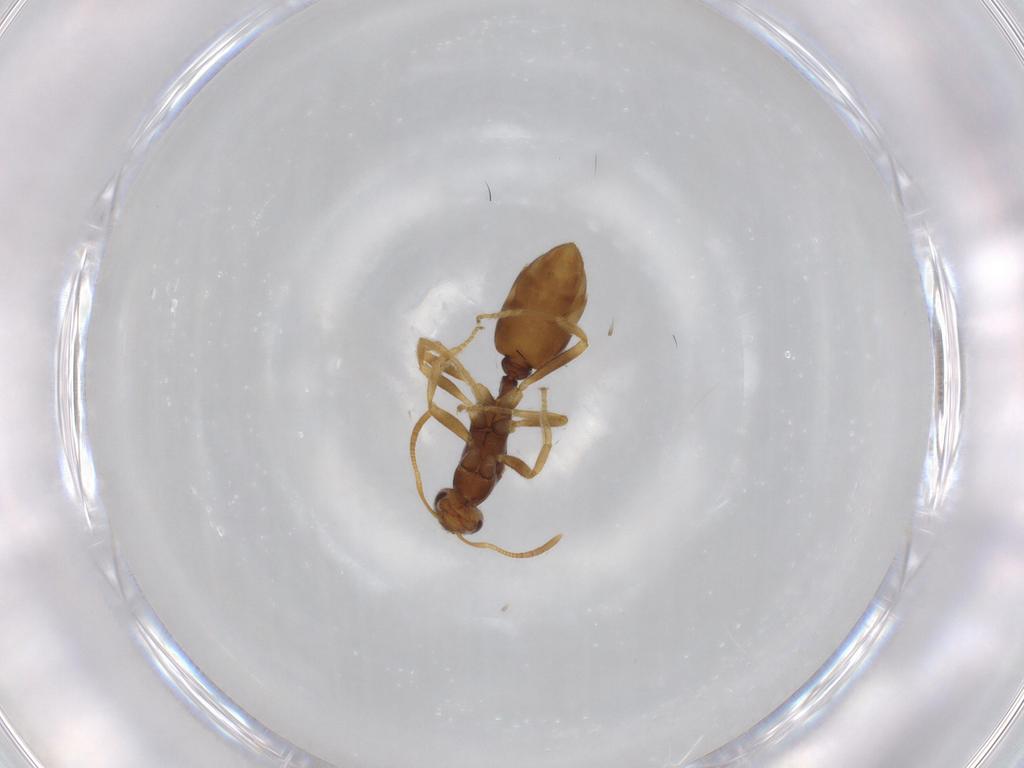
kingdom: Animalia
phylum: Arthropoda
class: Insecta
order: Hymenoptera
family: Formicidae
